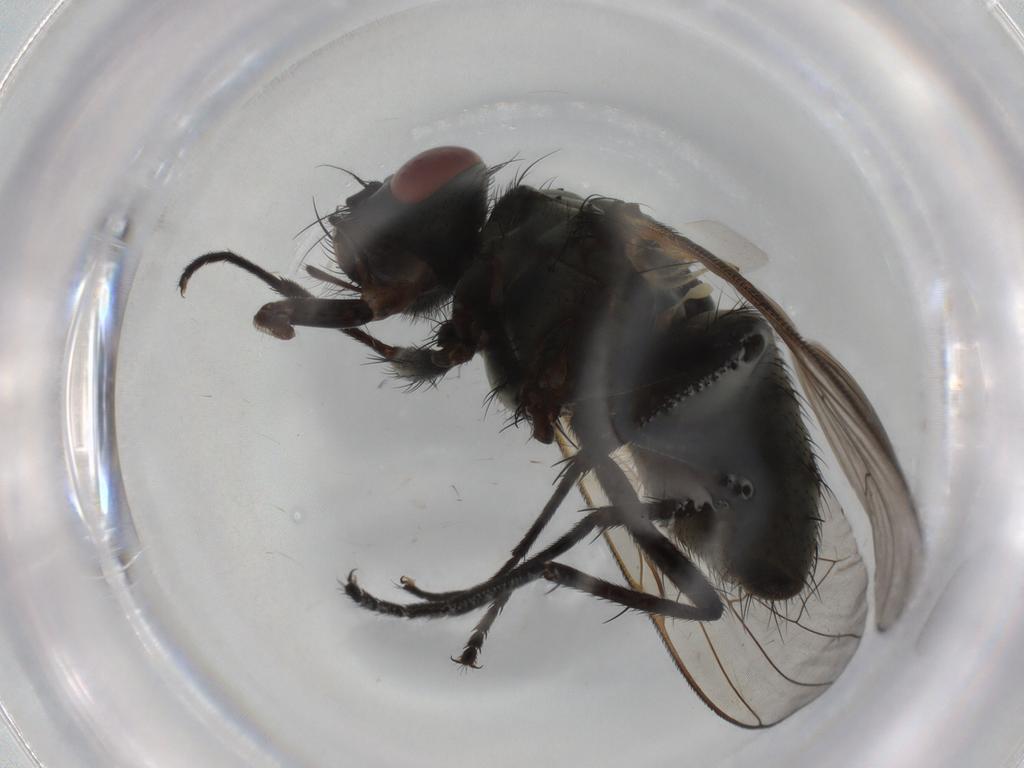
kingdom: Animalia
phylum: Arthropoda
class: Insecta
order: Diptera
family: Muscidae
